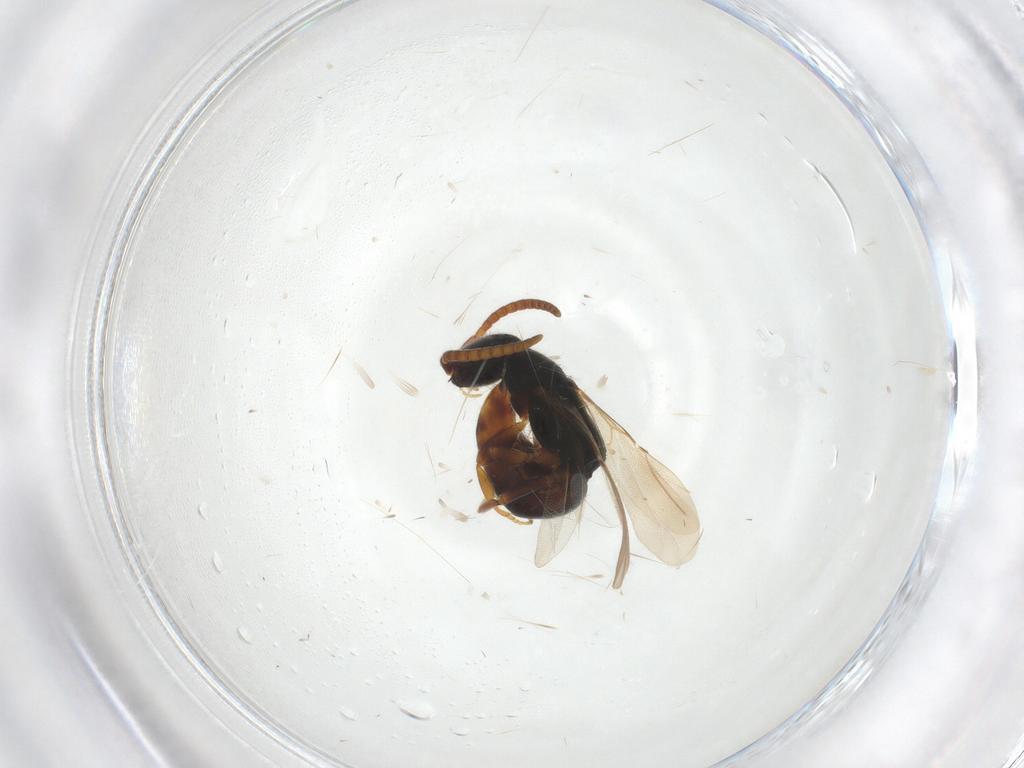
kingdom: Animalia
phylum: Arthropoda
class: Insecta
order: Hymenoptera
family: Bethylidae
